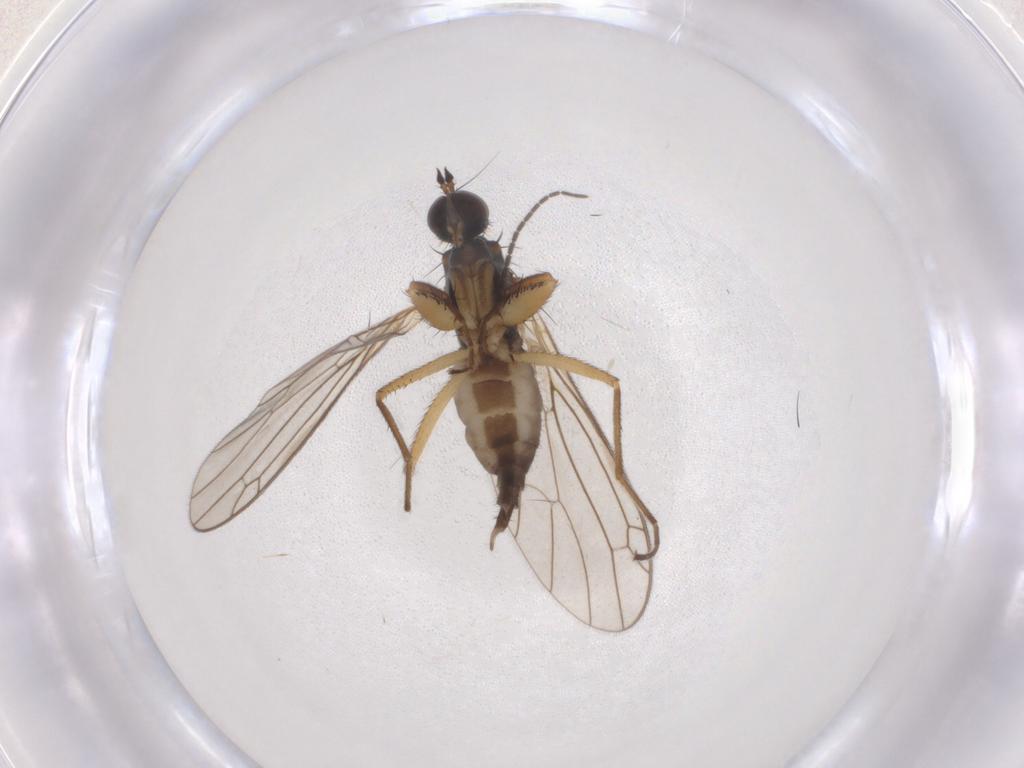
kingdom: Animalia
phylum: Arthropoda
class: Insecta
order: Diptera
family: Empididae
